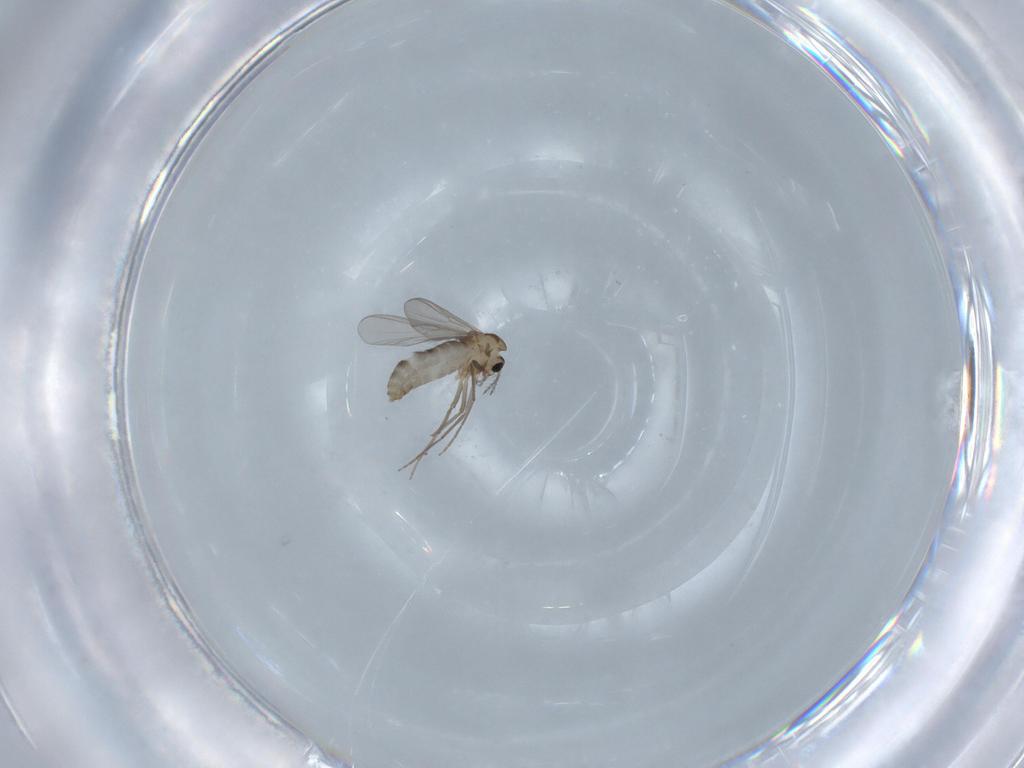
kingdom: Animalia
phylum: Arthropoda
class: Insecta
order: Diptera
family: Chironomidae
